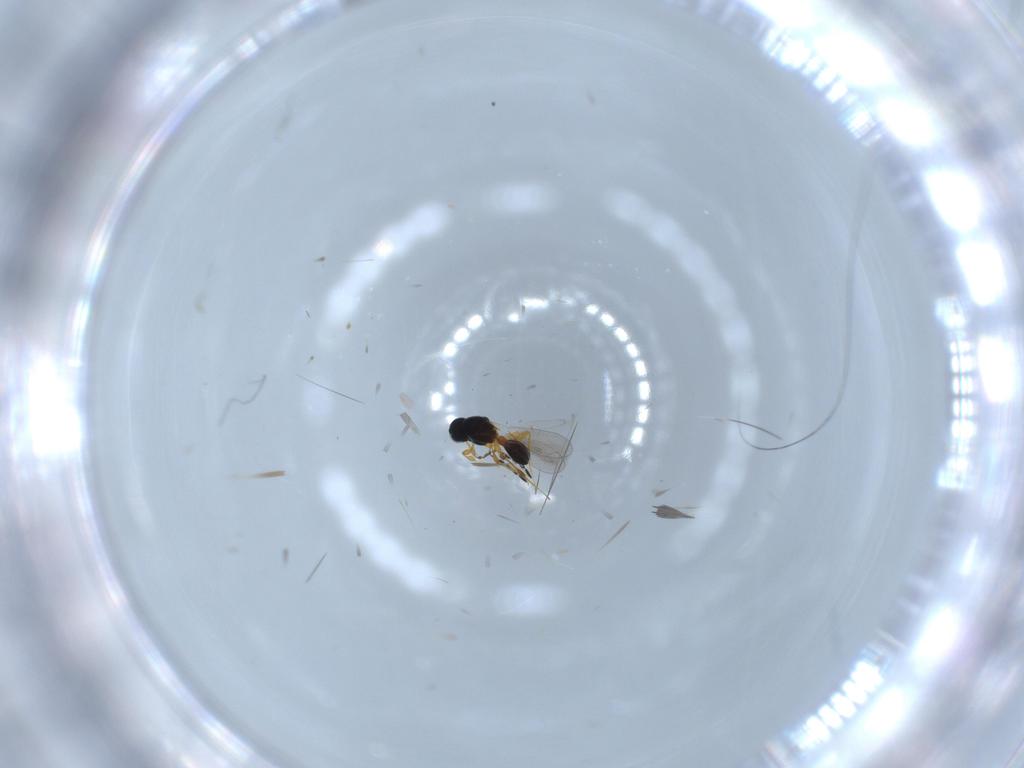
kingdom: Animalia
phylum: Arthropoda
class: Insecta
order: Hymenoptera
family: Platygastridae
